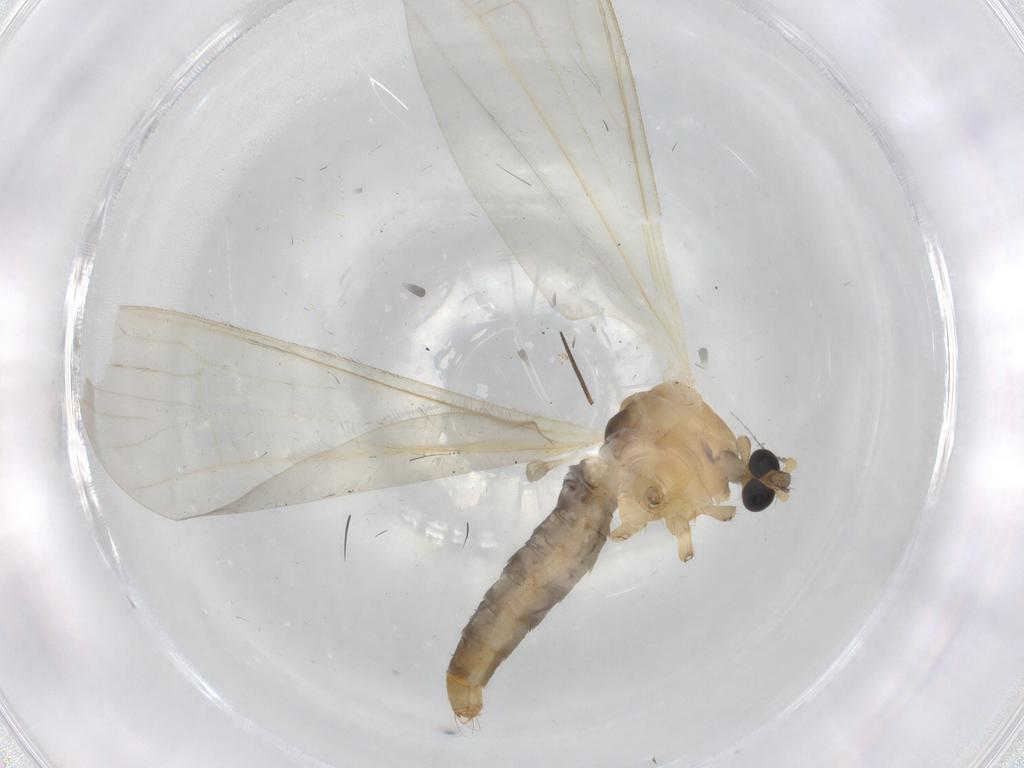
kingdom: Animalia
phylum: Arthropoda
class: Insecta
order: Diptera
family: Limoniidae
